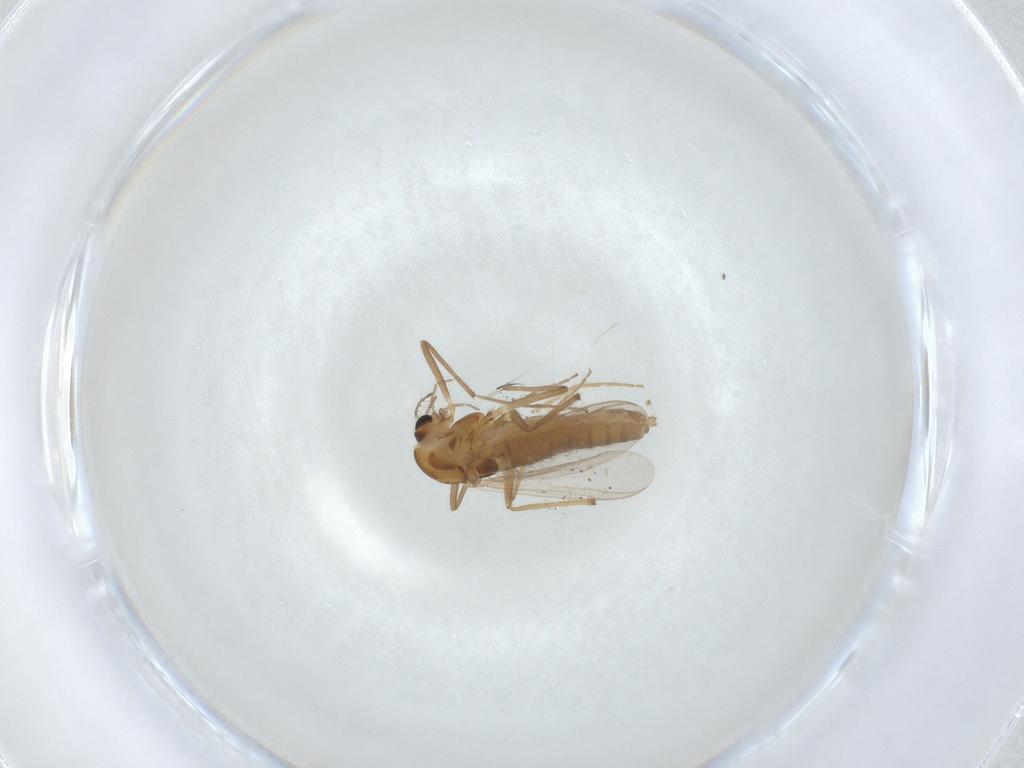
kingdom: Animalia
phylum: Arthropoda
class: Insecta
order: Diptera
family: Chironomidae
